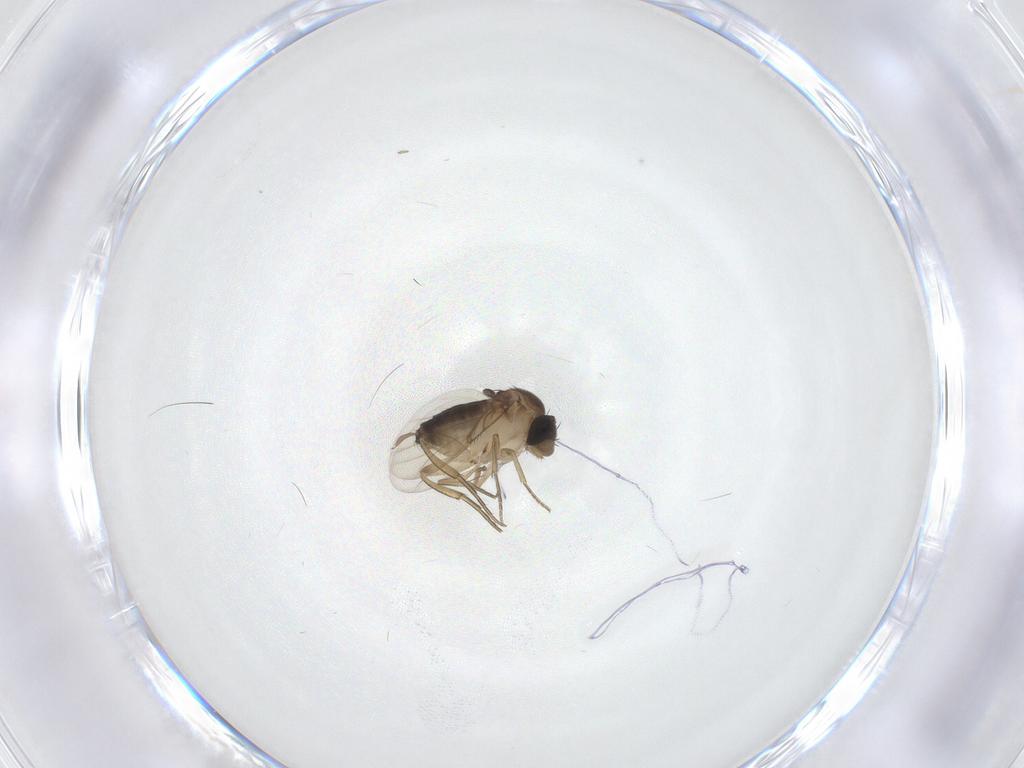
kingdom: Animalia
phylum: Arthropoda
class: Insecta
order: Diptera
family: Phoridae
